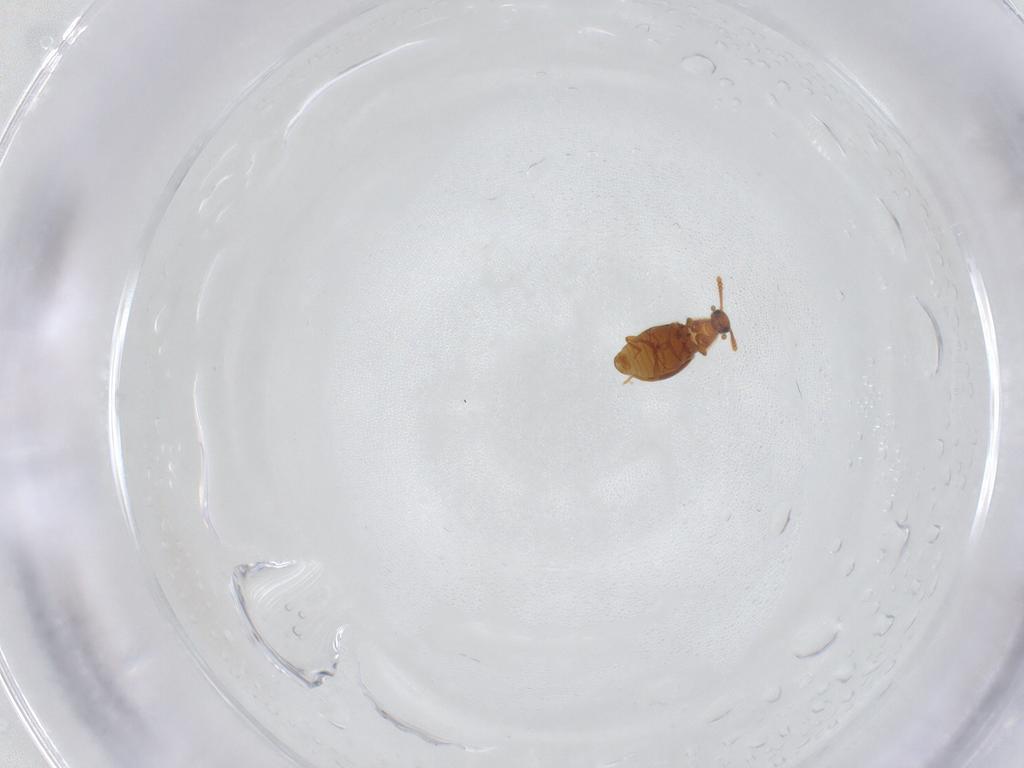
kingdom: Animalia
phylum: Arthropoda
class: Insecta
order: Coleoptera
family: Staphylinidae
